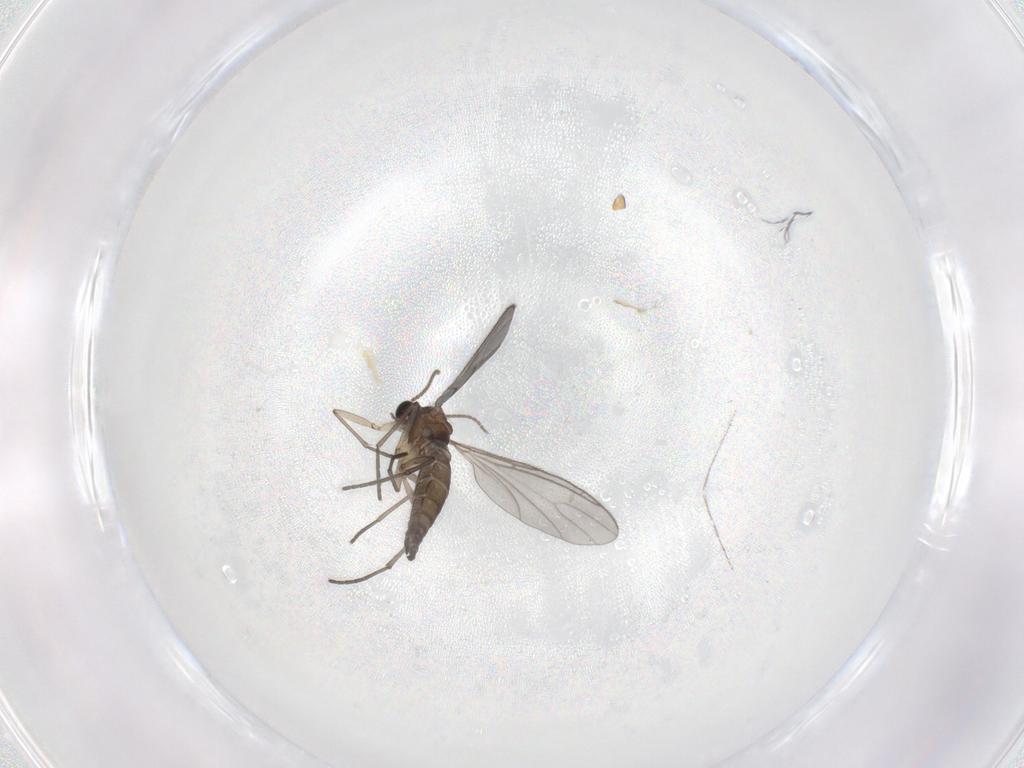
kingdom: Animalia
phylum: Arthropoda
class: Insecta
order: Diptera
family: Sciaridae
